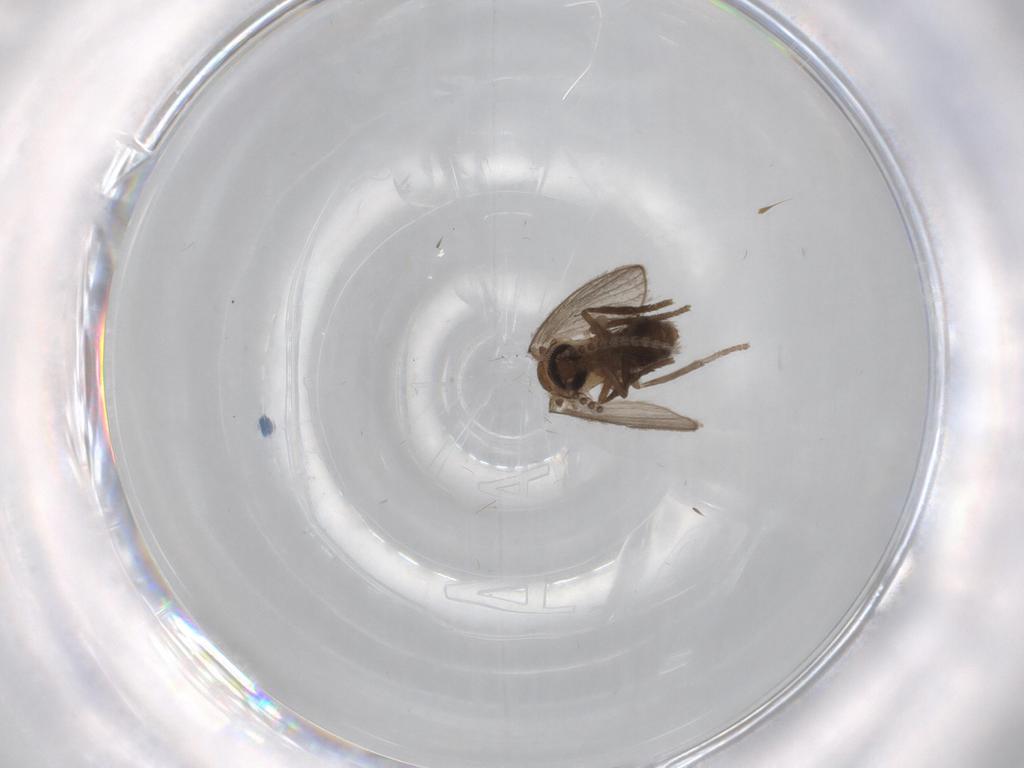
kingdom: Animalia
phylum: Arthropoda
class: Insecta
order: Diptera
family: Psychodidae
